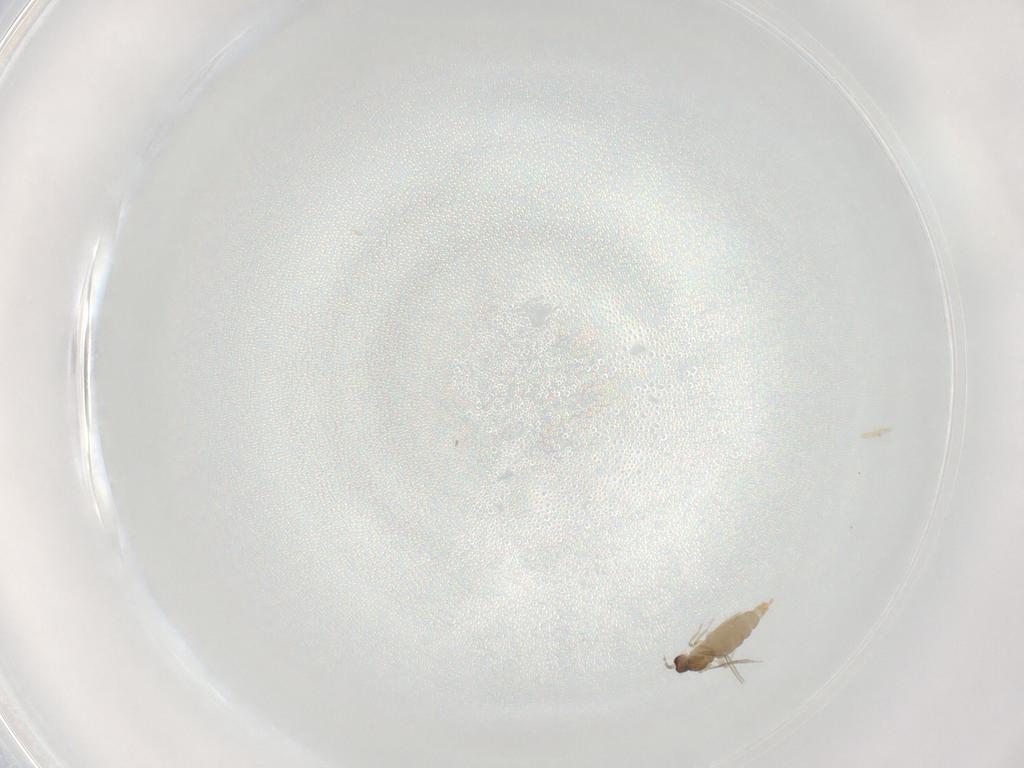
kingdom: Animalia
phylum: Arthropoda
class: Insecta
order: Diptera
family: Cecidomyiidae
